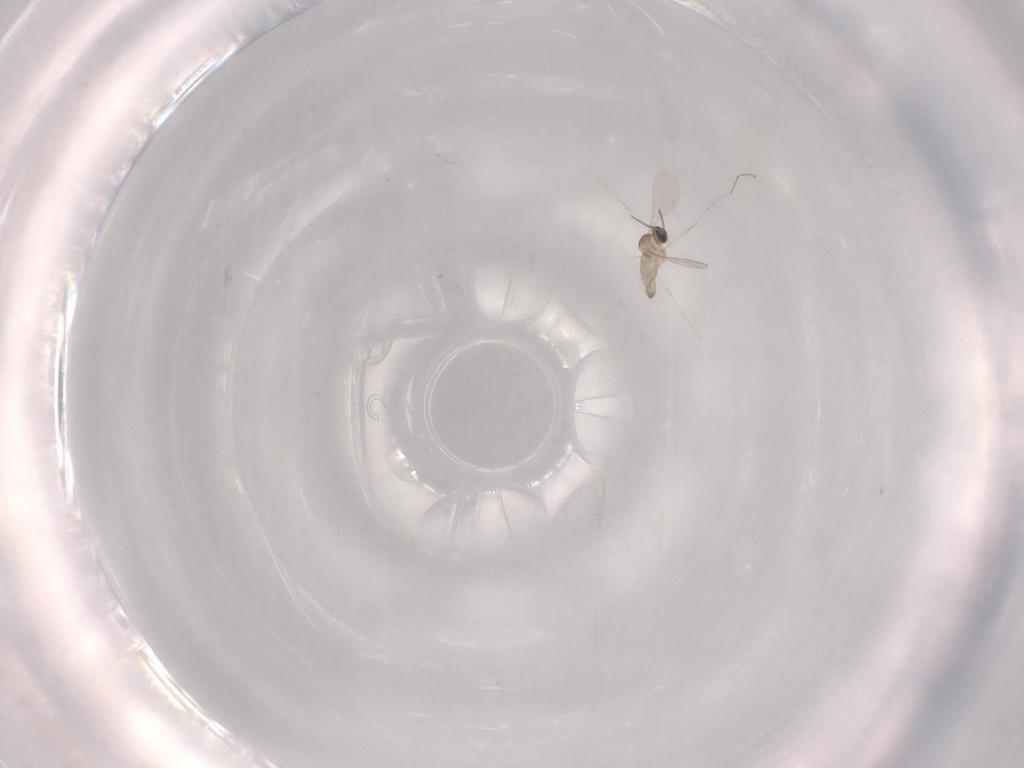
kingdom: Animalia
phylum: Arthropoda
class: Insecta
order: Diptera
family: Cecidomyiidae
